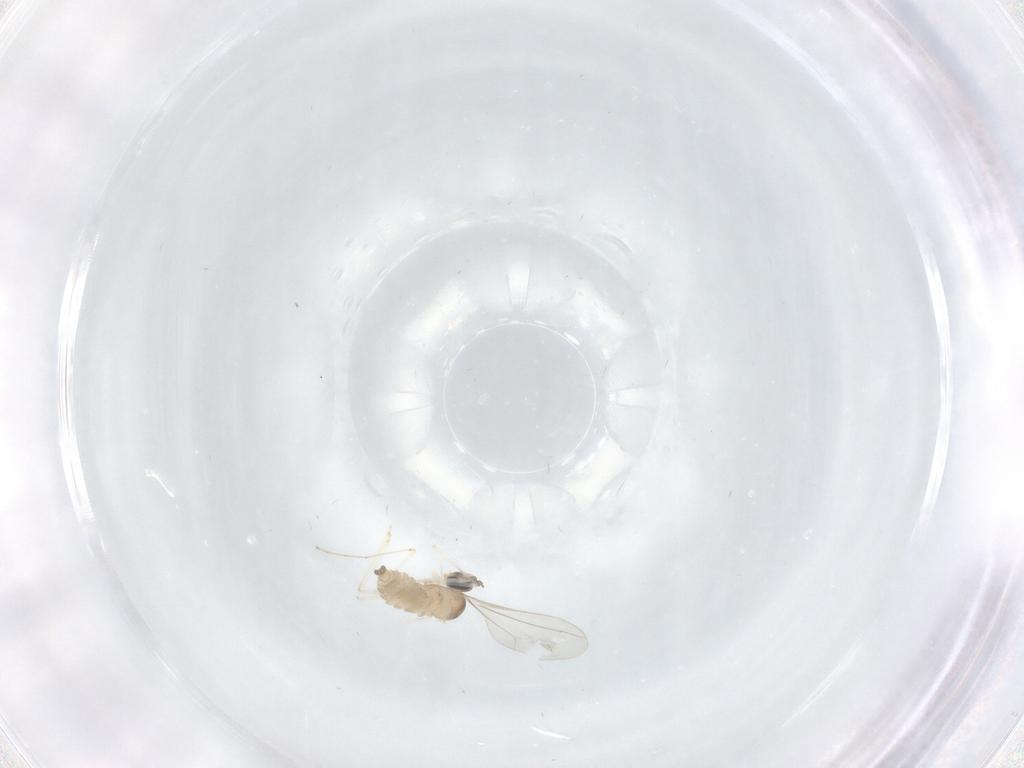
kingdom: Animalia
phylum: Arthropoda
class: Insecta
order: Diptera
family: Cecidomyiidae
